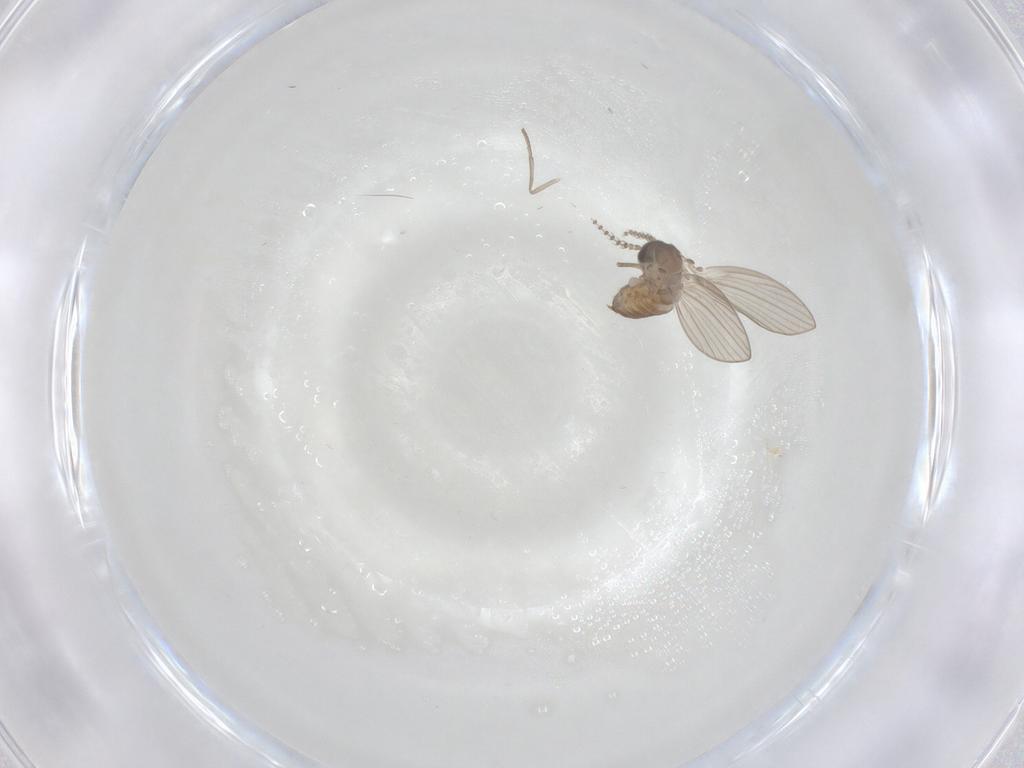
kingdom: Animalia
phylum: Arthropoda
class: Insecta
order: Diptera
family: Psychodidae
